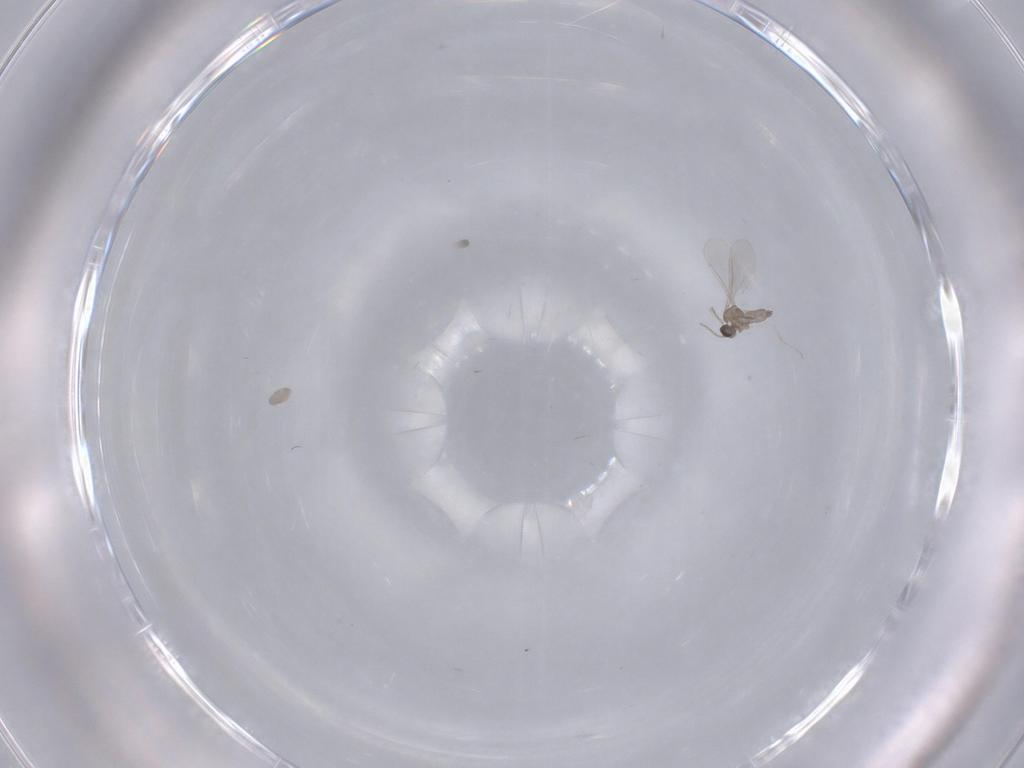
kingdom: Animalia
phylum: Arthropoda
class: Insecta
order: Diptera
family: Psychodidae
